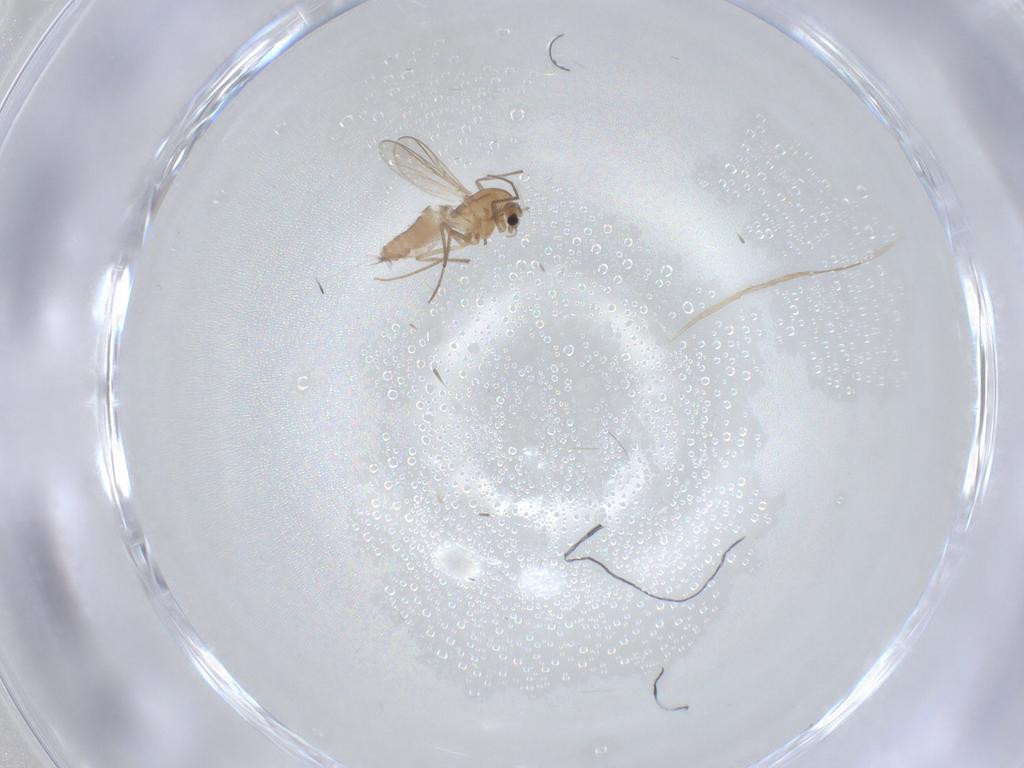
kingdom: Animalia
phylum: Arthropoda
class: Insecta
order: Diptera
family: Chironomidae
